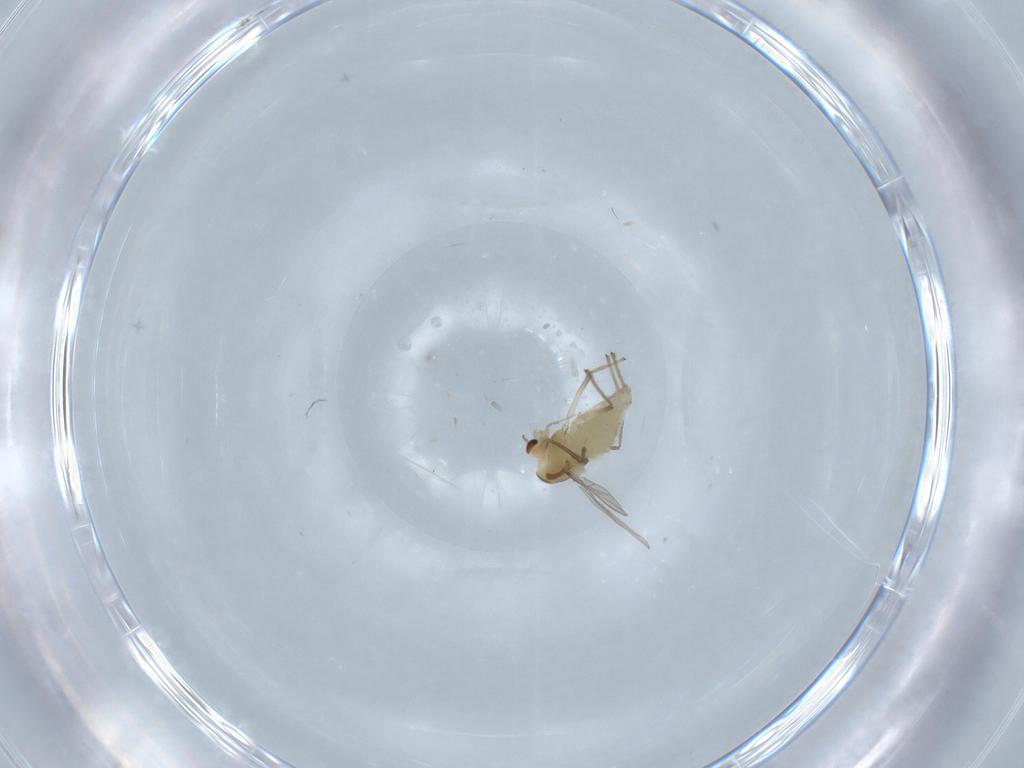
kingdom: Animalia
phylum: Arthropoda
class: Insecta
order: Diptera
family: Chironomidae
